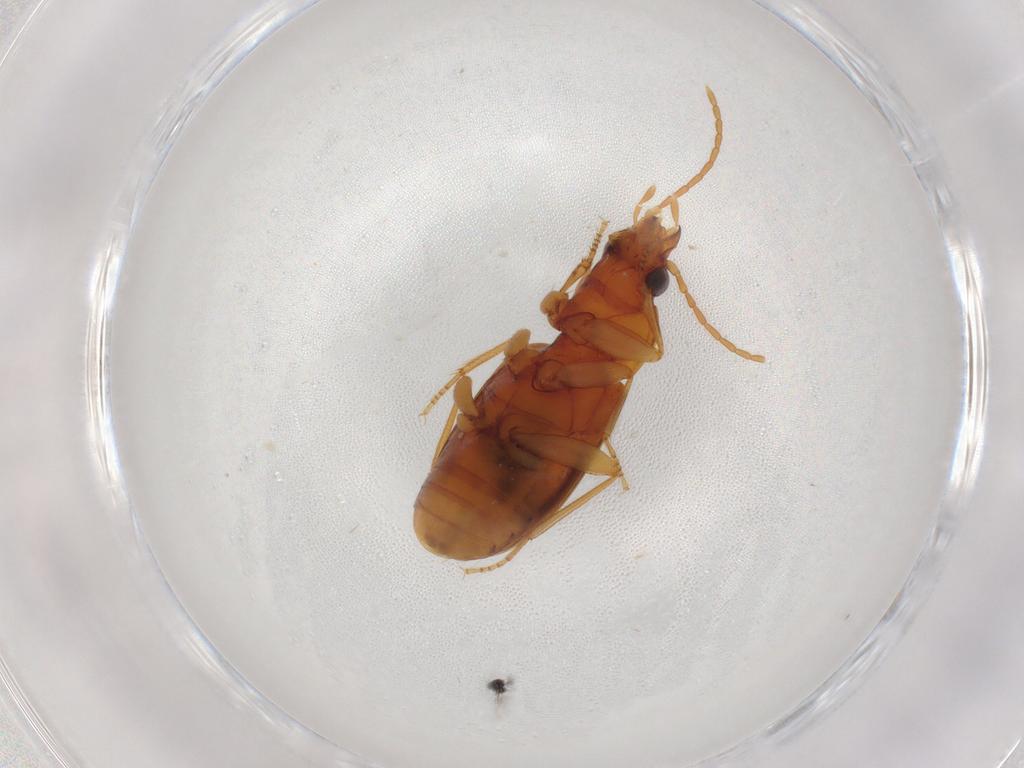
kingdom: Animalia
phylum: Arthropoda
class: Insecta
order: Coleoptera
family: Carabidae
